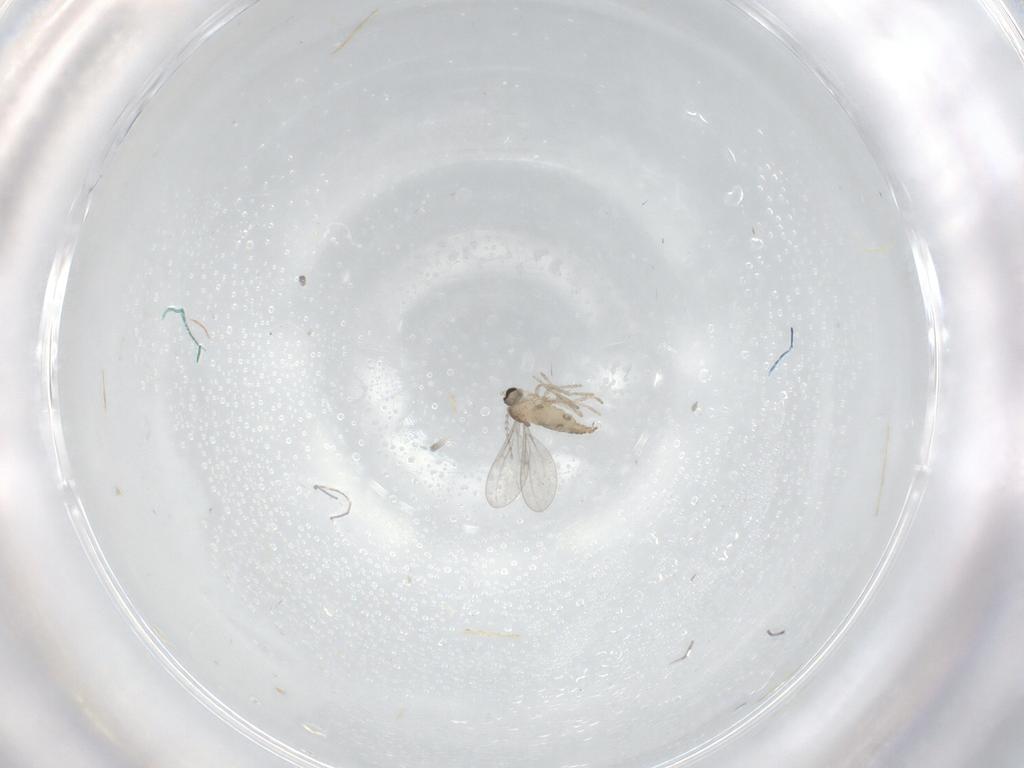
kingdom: Animalia
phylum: Arthropoda
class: Insecta
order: Diptera
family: Cecidomyiidae
